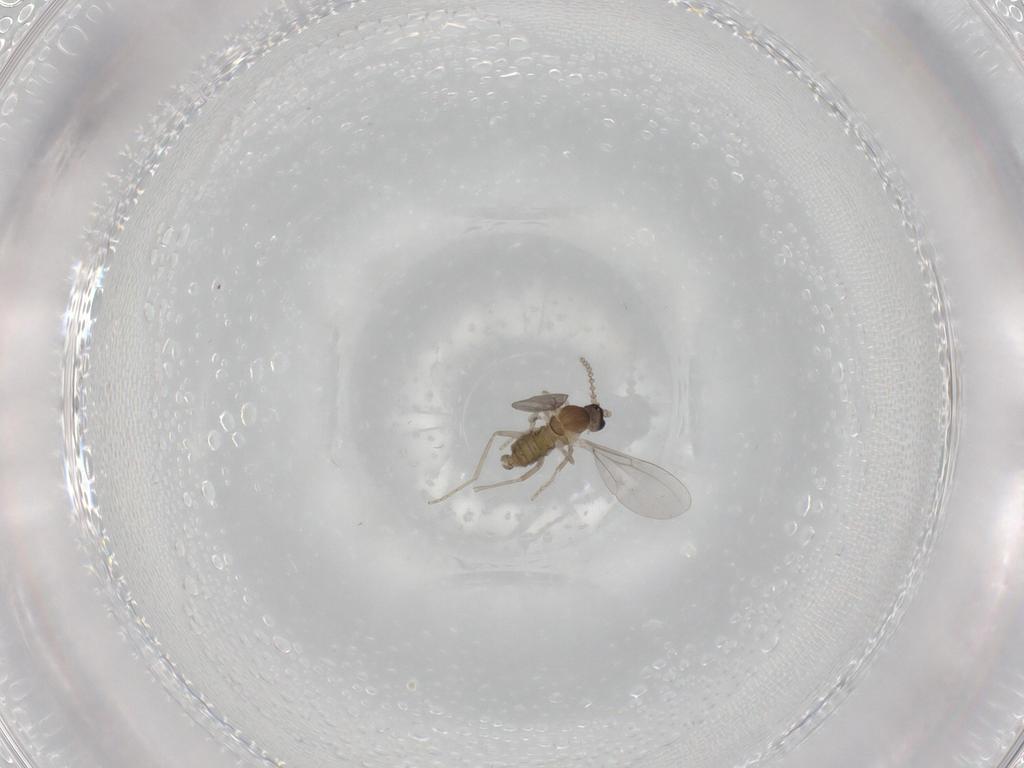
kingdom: Animalia
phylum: Arthropoda
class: Insecta
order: Diptera
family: Cecidomyiidae
